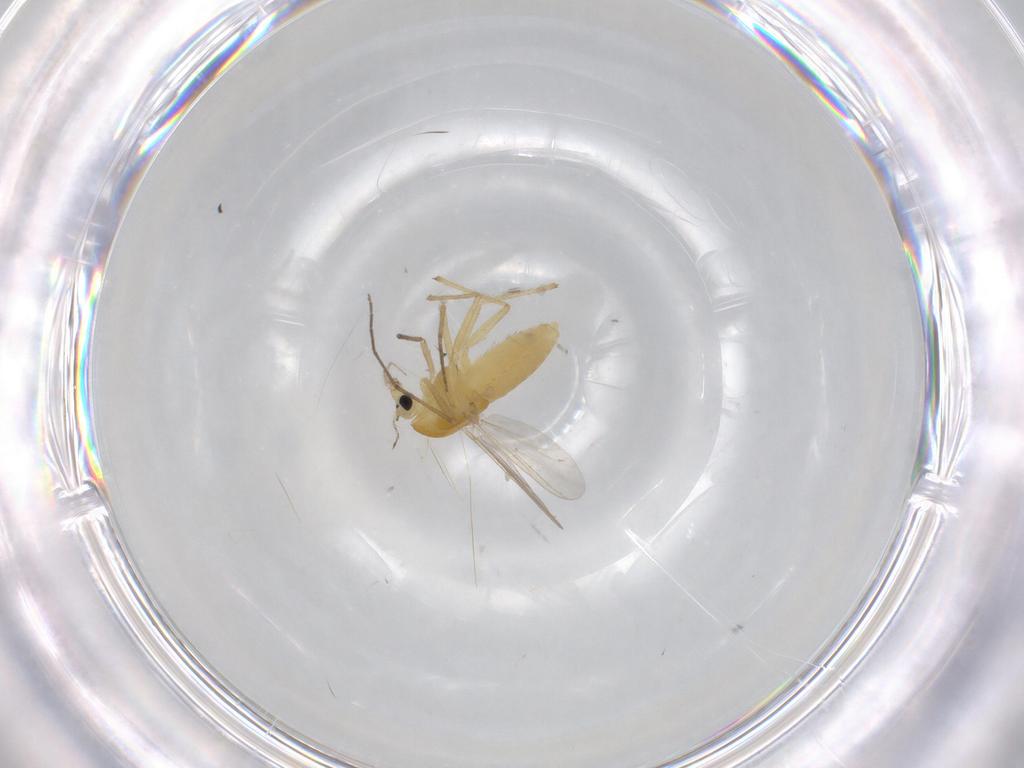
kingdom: Animalia
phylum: Arthropoda
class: Insecta
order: Diptera
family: Chironomidae
